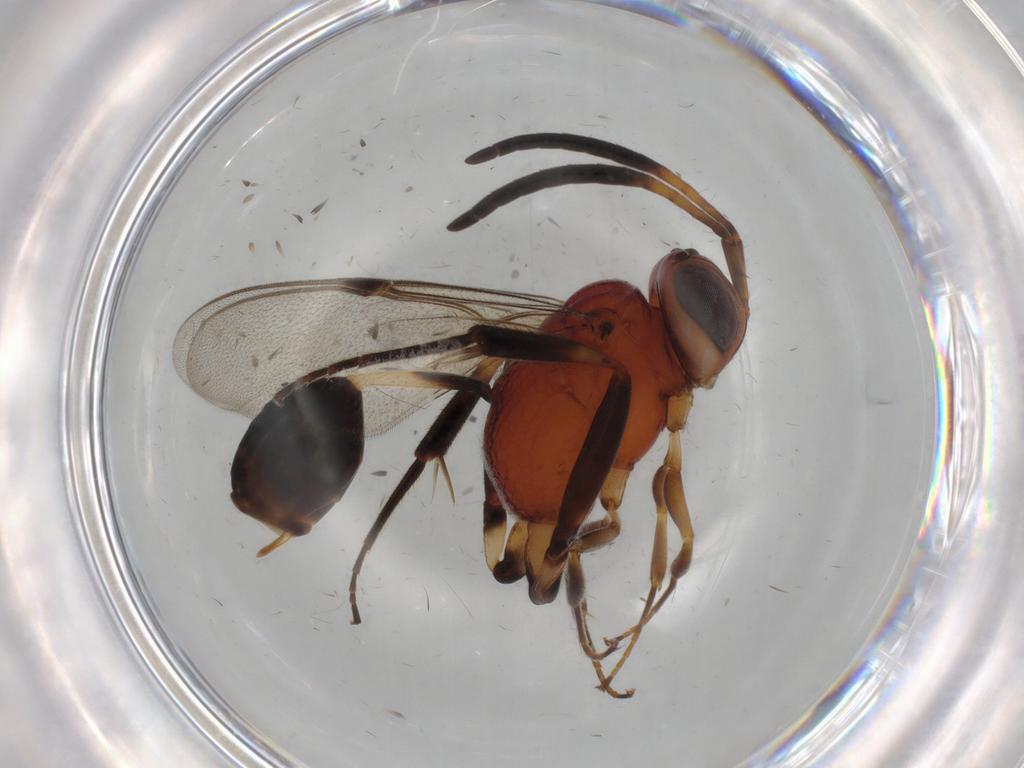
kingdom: Animalia
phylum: Arthropoda
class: Insecta
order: Hymenoptera
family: Evaniidae
